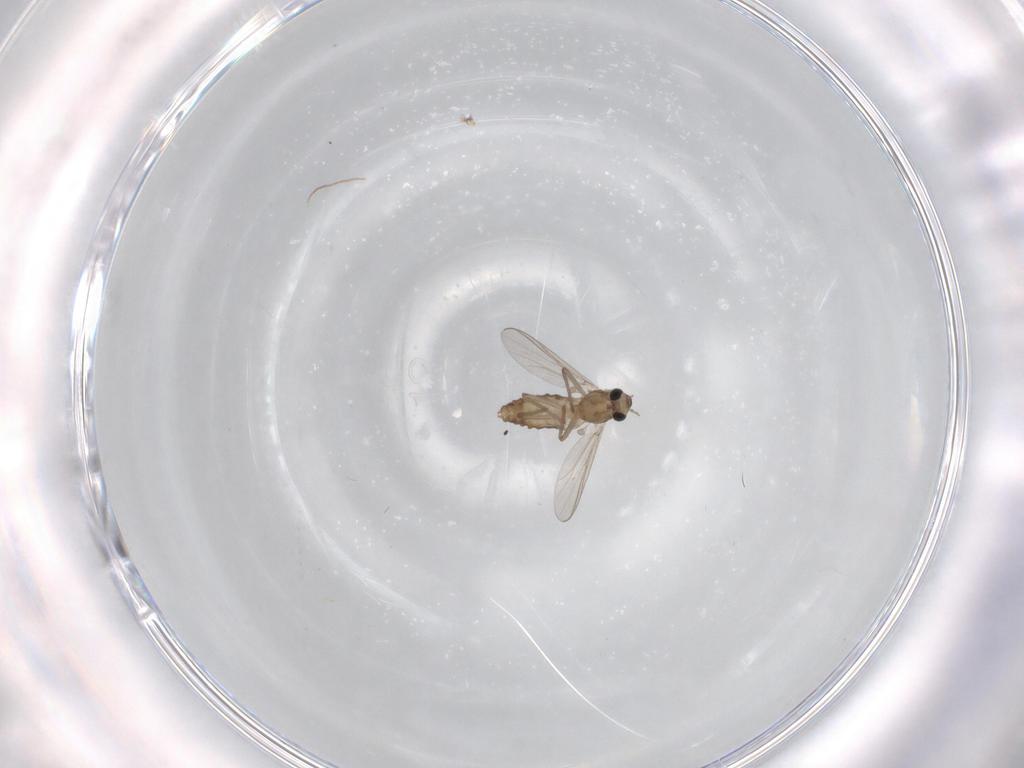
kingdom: Animalia
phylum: Arthropoda
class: Insecta
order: Diptera
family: Chironomidae
